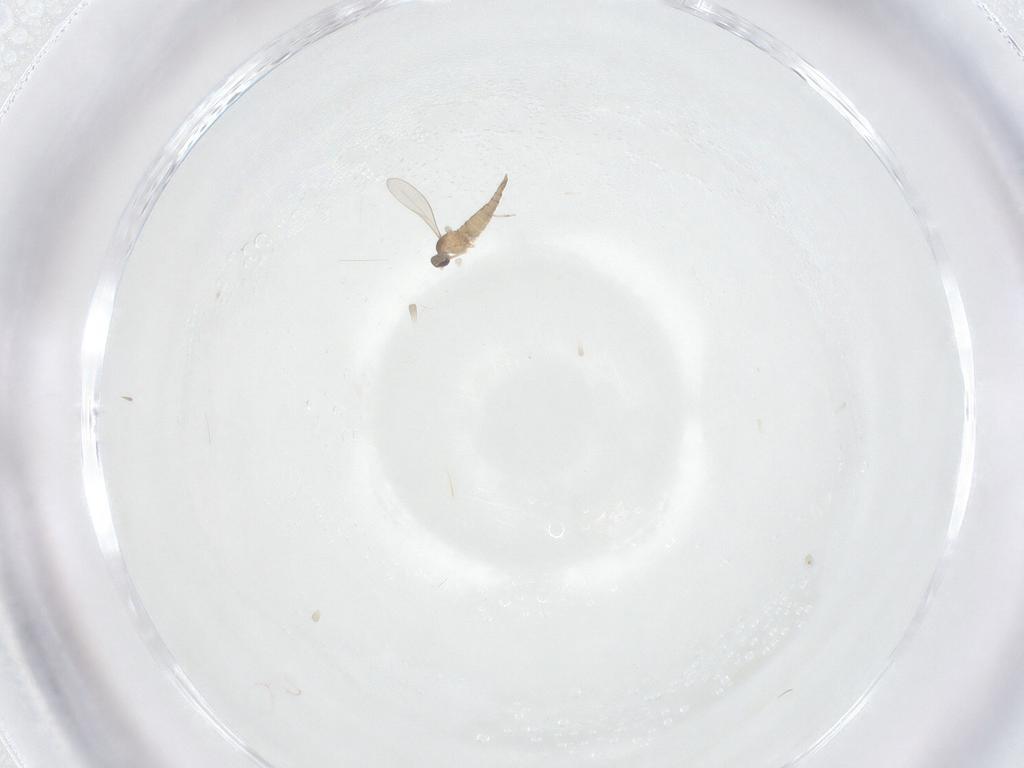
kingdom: Animalia
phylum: Arthropoda
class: Insecta
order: Diptera
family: Cecidomyiidae
